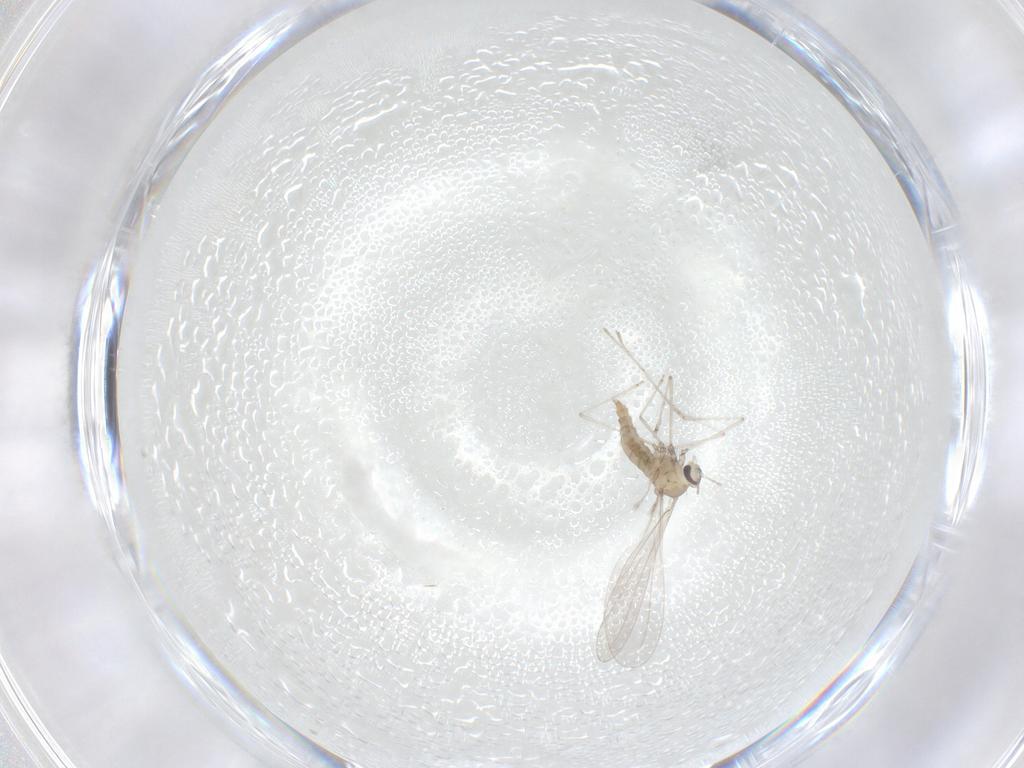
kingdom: Animalia
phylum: Arthropoda
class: Insecta
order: Diptera
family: Cecidomyiidae
